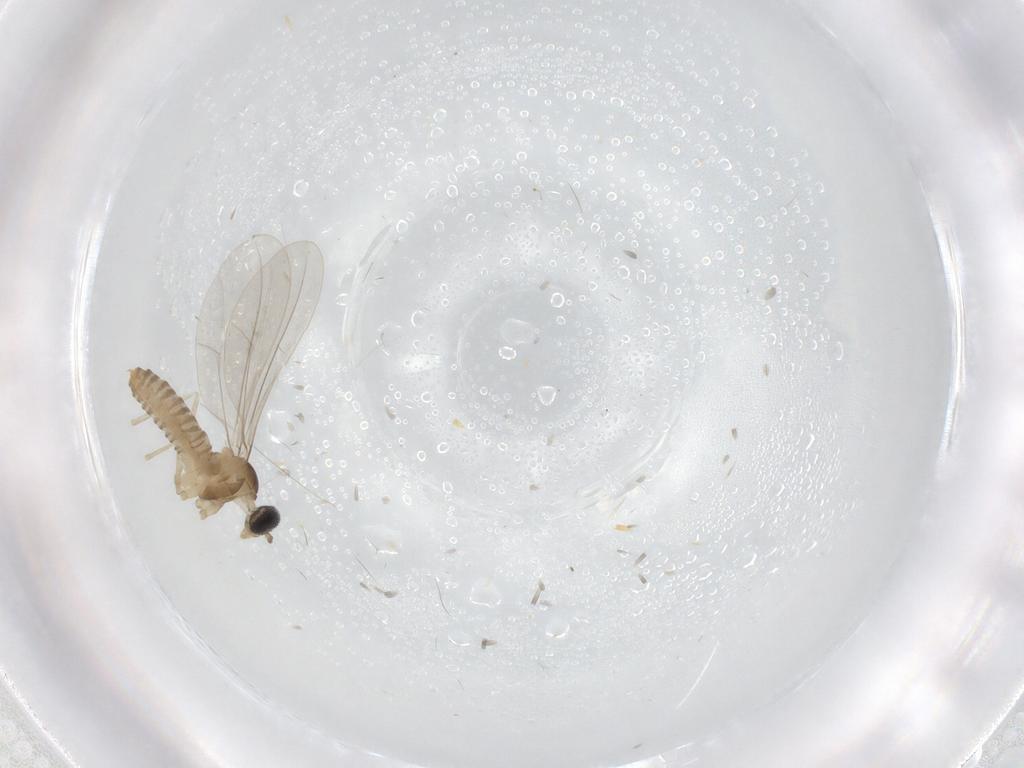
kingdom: Animalia
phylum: Arthropoda
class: Insecta
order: Diptera
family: Cecidomyiidae
